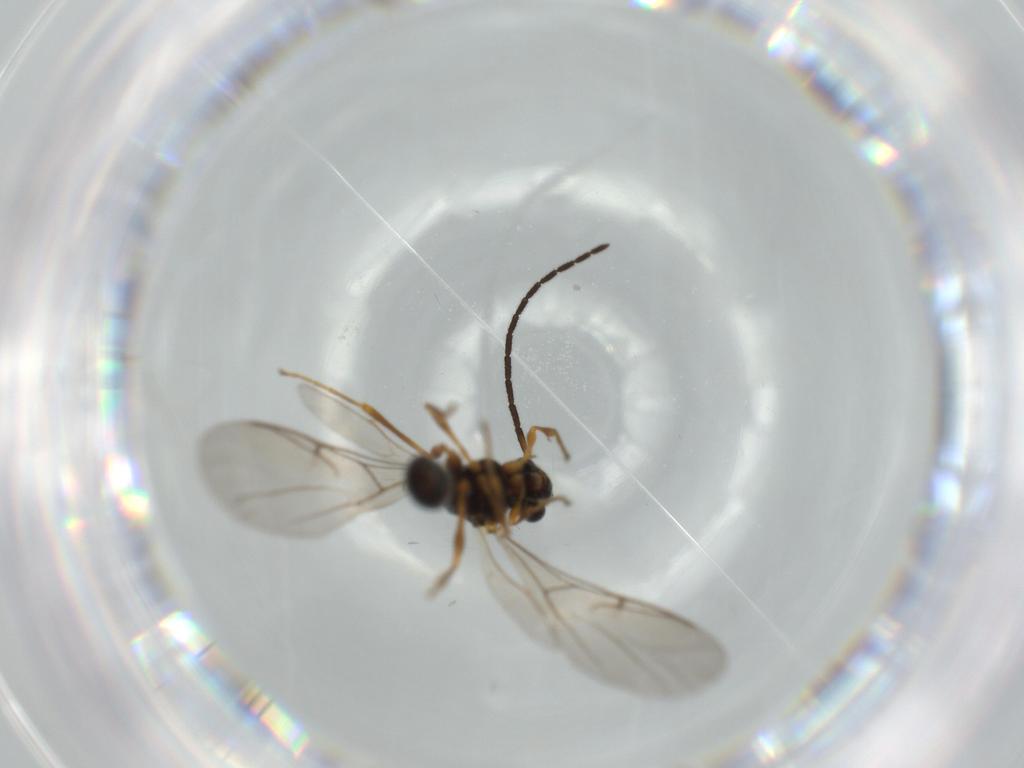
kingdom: Animalia
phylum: Arthropoda
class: Insecta
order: Hymenoptera
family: Diapriidae
